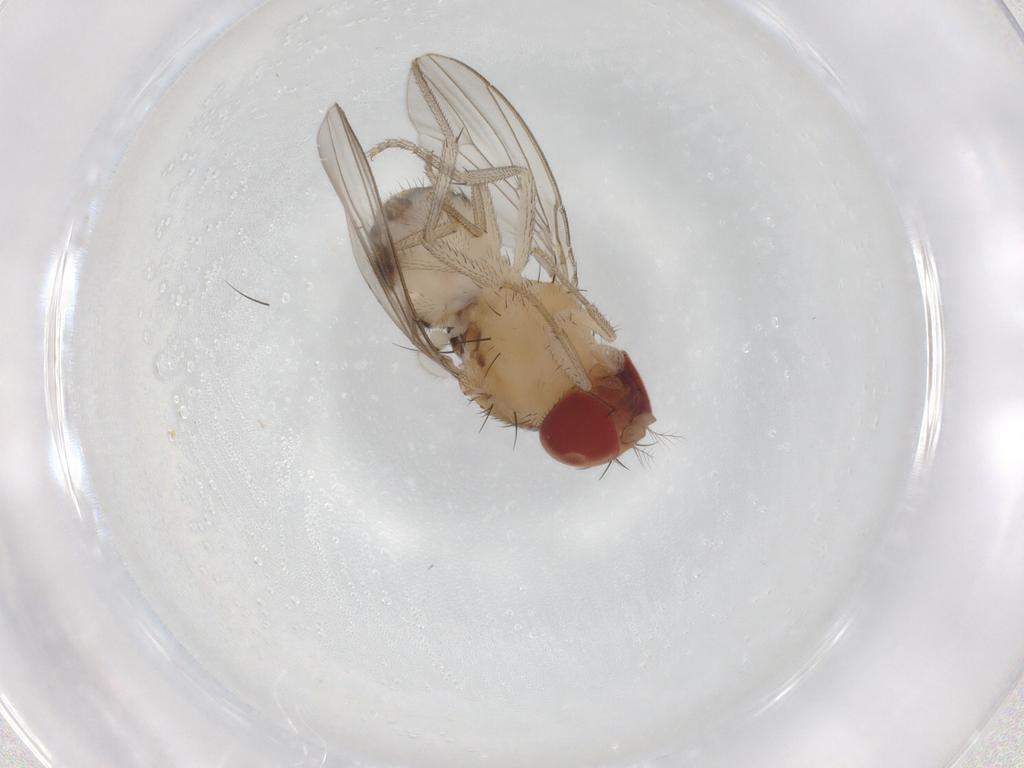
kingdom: Animalia
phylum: Arthropoda
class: Insecta
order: Diptera
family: Drosophilidae
